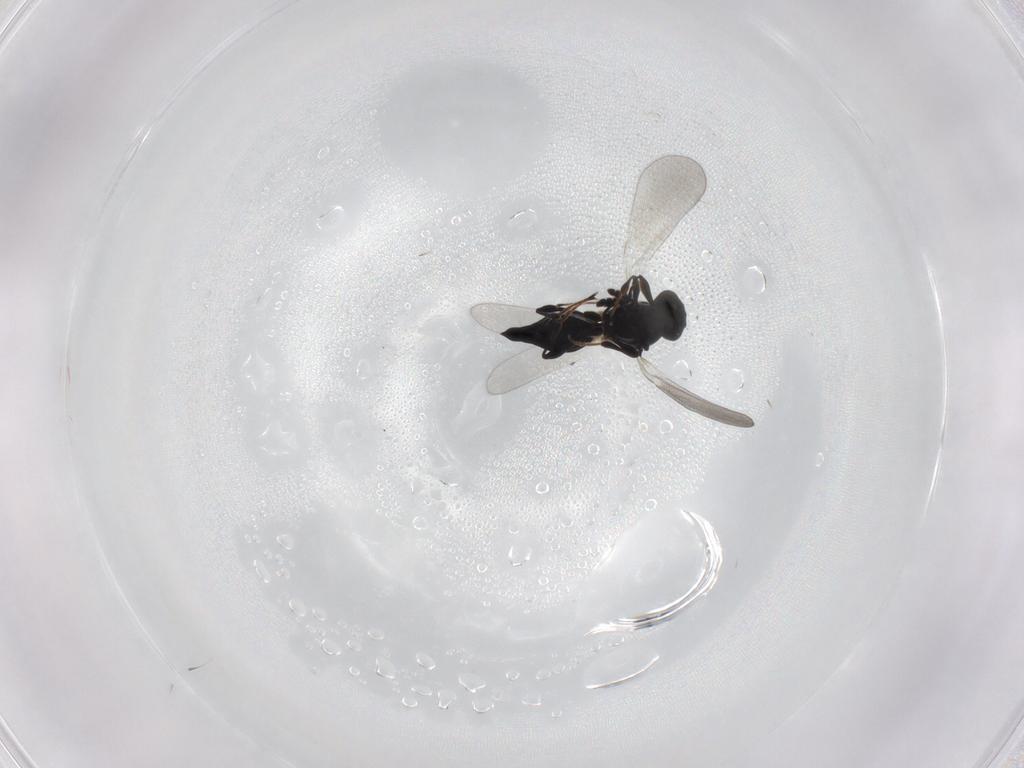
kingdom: Animalia
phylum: Arthropoda
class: Insecta
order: Hymenoptera
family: Platygastridae
